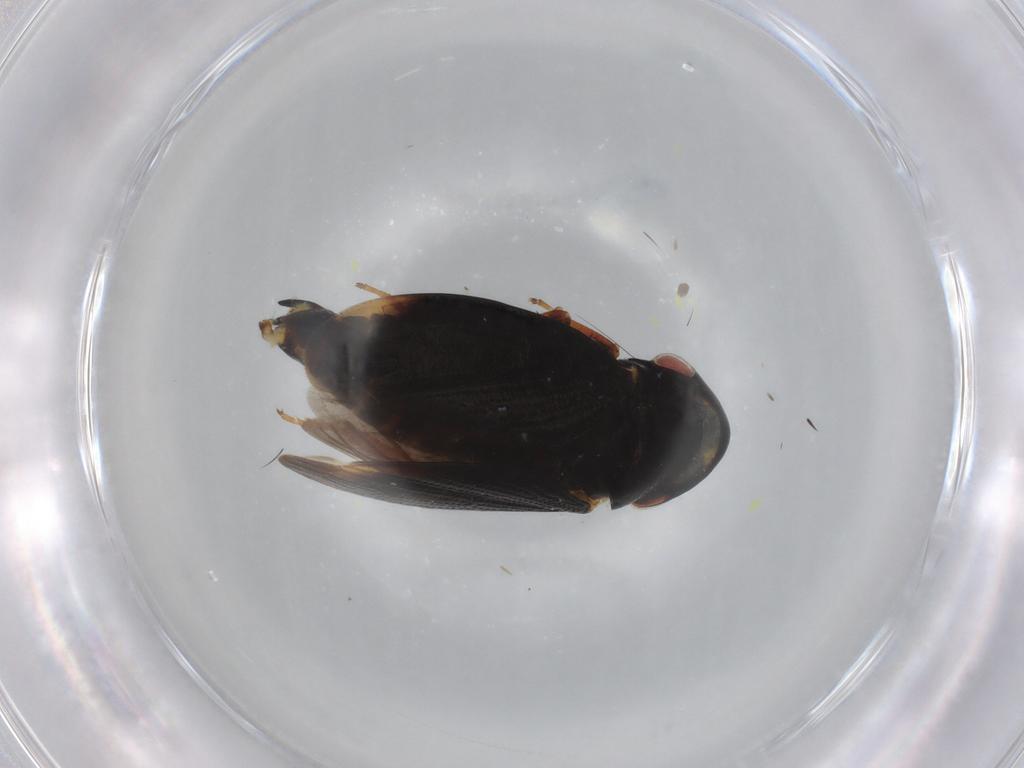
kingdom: Animalia
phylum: Arthropoda
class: Insecta
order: Hemiptera
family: Cicadellidae
